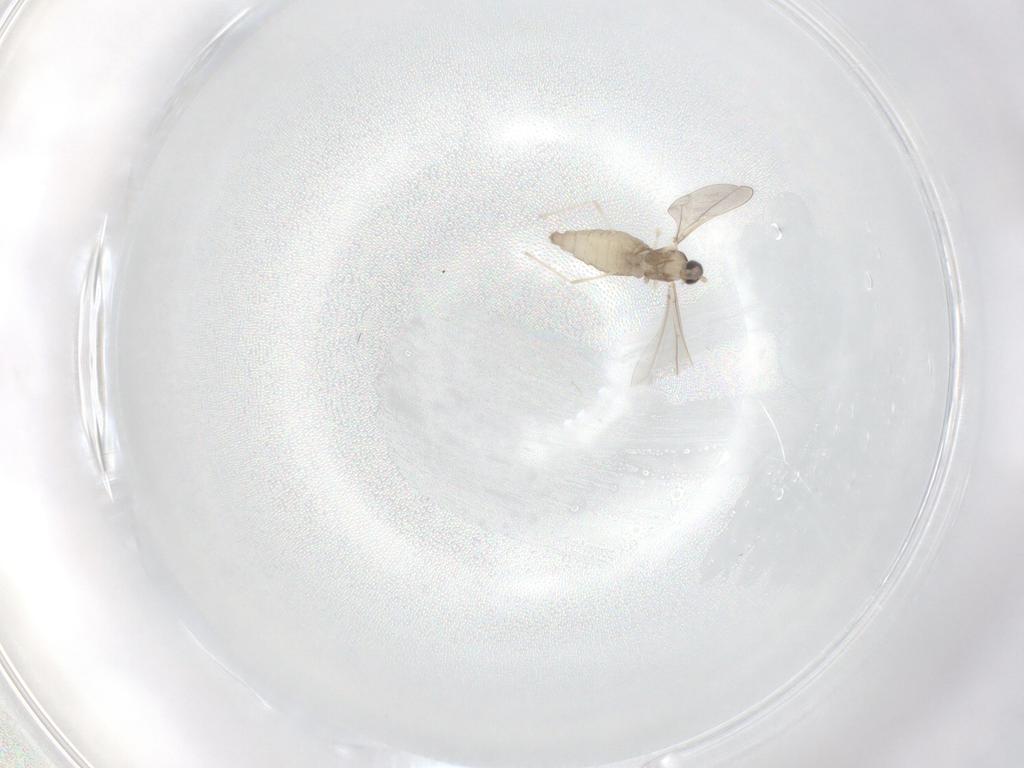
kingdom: Animalia
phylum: Arthropoda
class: Insecta
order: Diptera
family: Cecidomyiidae
